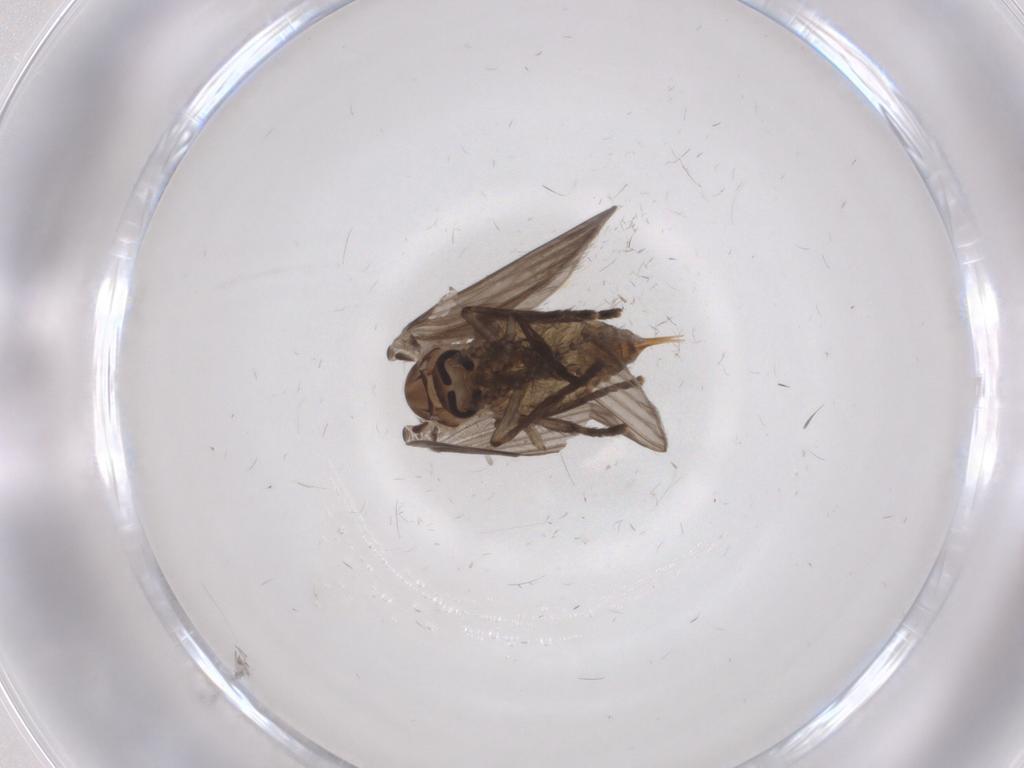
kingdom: Animalia
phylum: Arthropoda
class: Insecta
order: Diptera
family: Psychodidae
